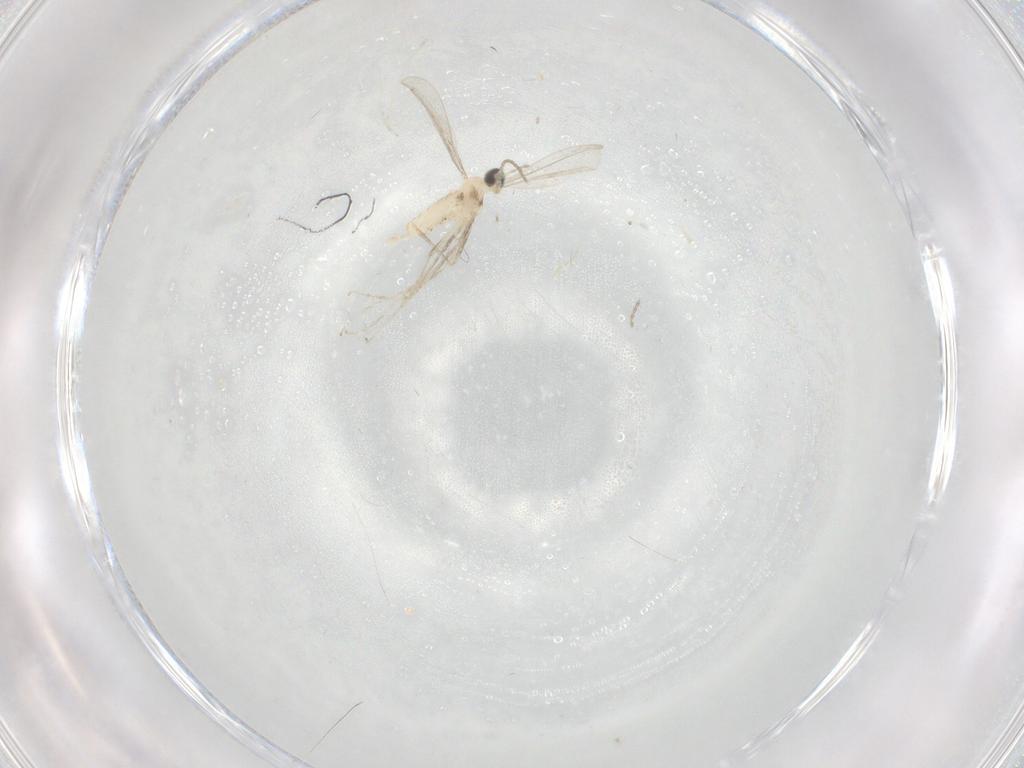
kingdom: Animalia
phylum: Arthropoda
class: Insecta
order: Diptera
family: Cecidomyiidae
